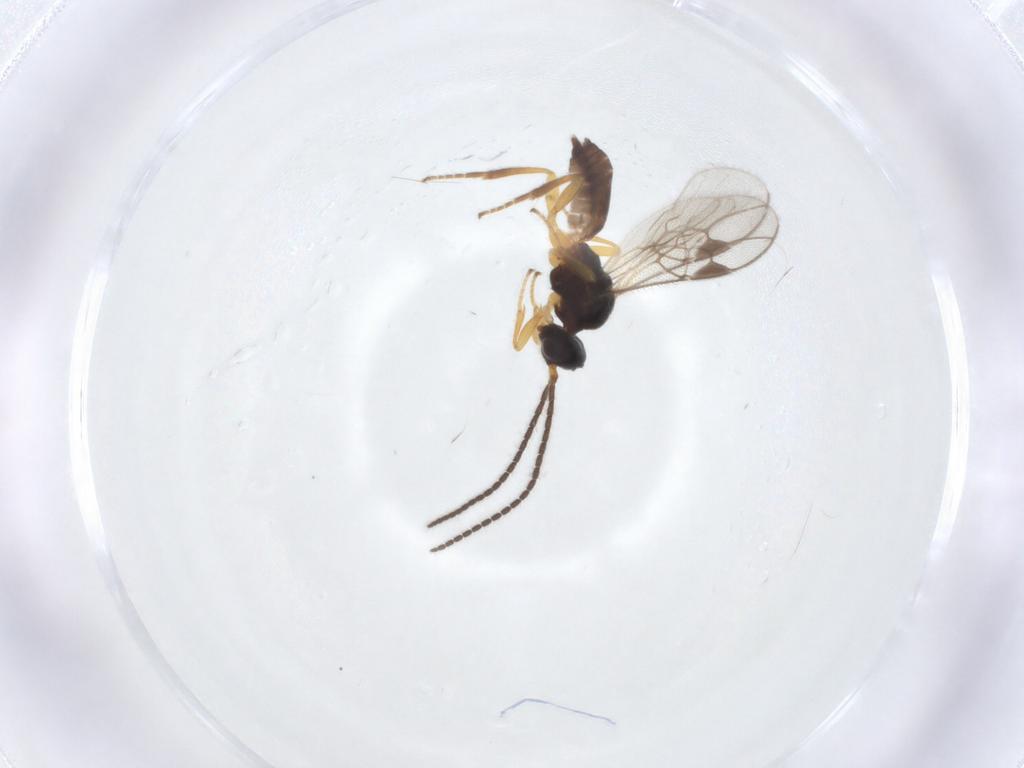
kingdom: Animalia
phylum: Arthropoda
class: Insecta
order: Hymenoptera
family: Braconidae
